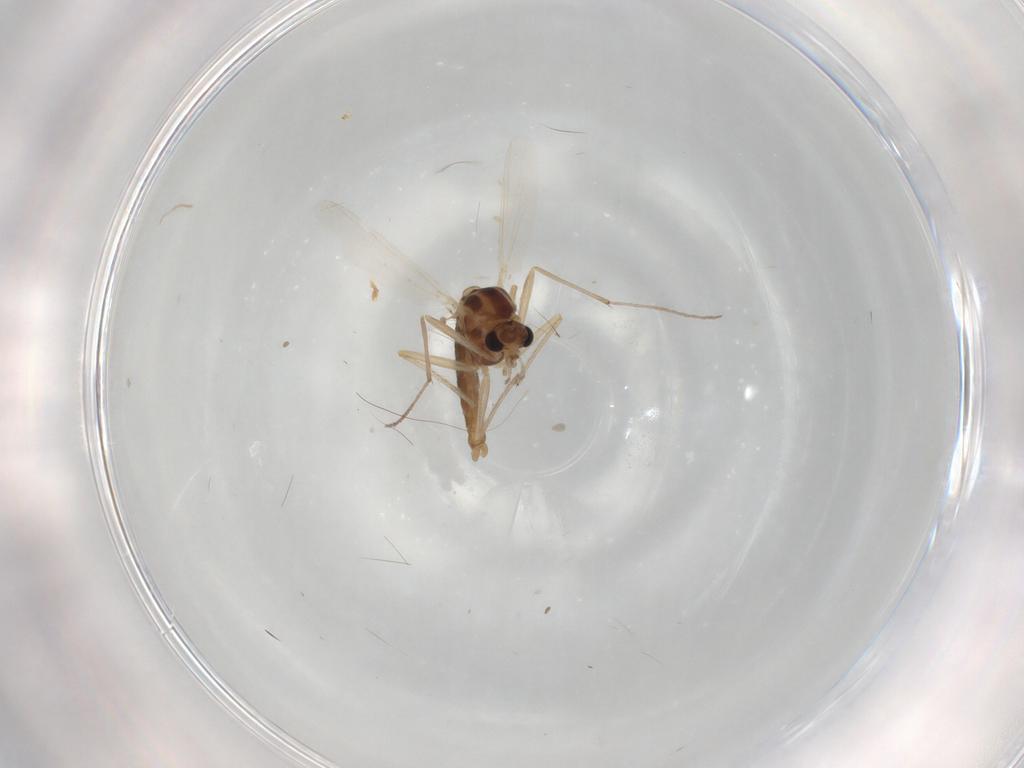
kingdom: Animalia
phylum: Arthropoda
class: Insecta
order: Diptera
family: Chironomidae
